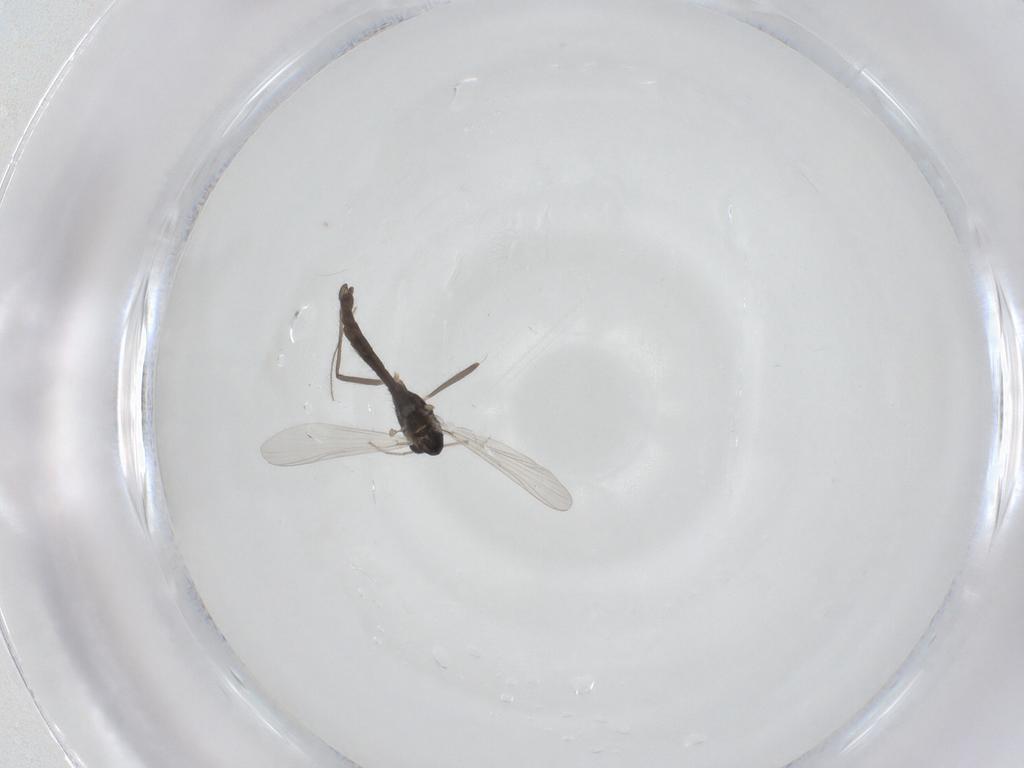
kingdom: Animalia
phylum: Arthropoda
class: Insecta
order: Diptera
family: Chironomidae
